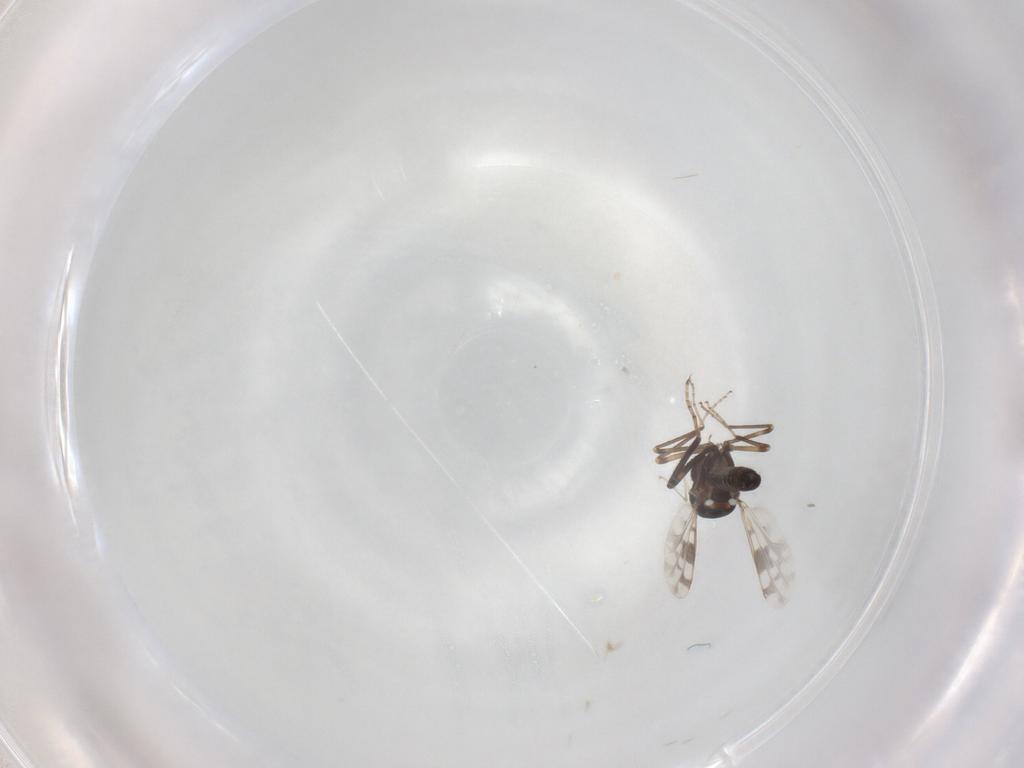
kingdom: Animalia
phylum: Arthropoda
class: Insecta
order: Diptera
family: Ceratopogonidae
